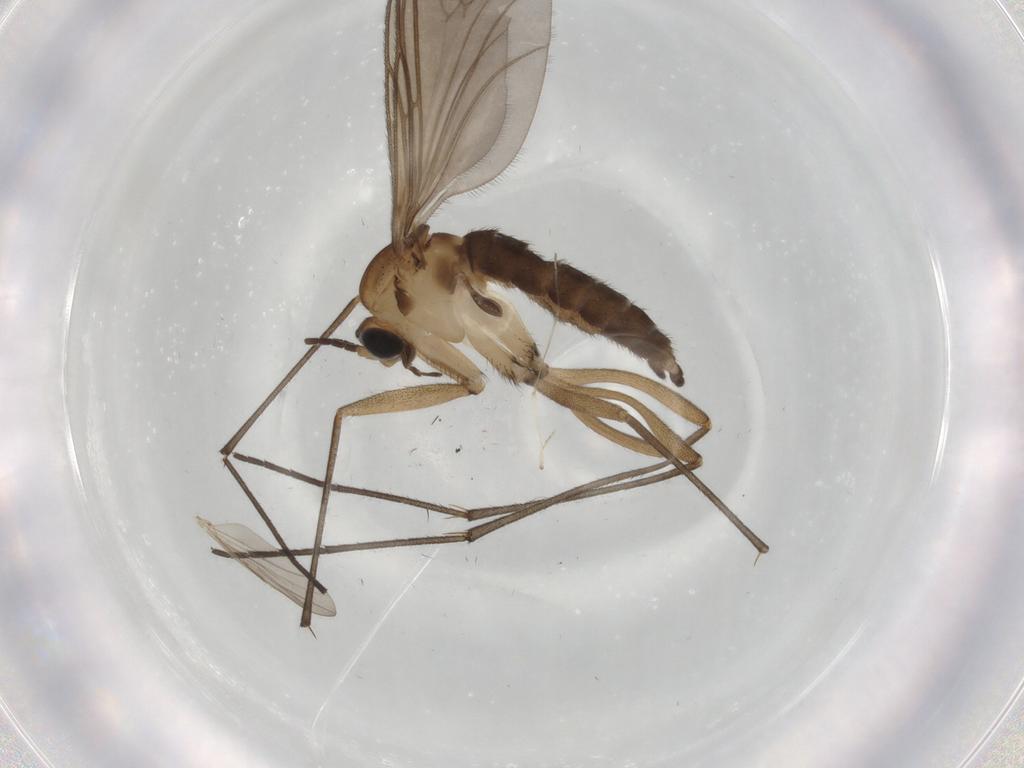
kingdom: Animalia
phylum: Arthropoda
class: Insecta
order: Diptera
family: Sciaridae
